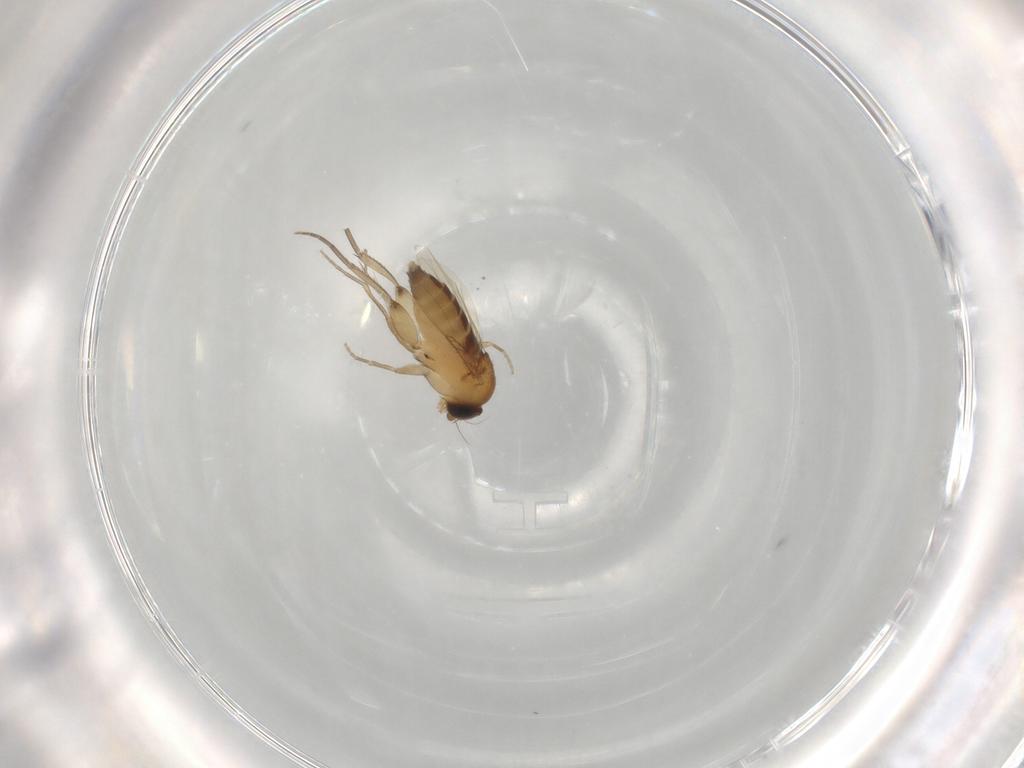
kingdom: Animalia
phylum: Arthropoda
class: Insecta
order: Diptera
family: Phoridae
